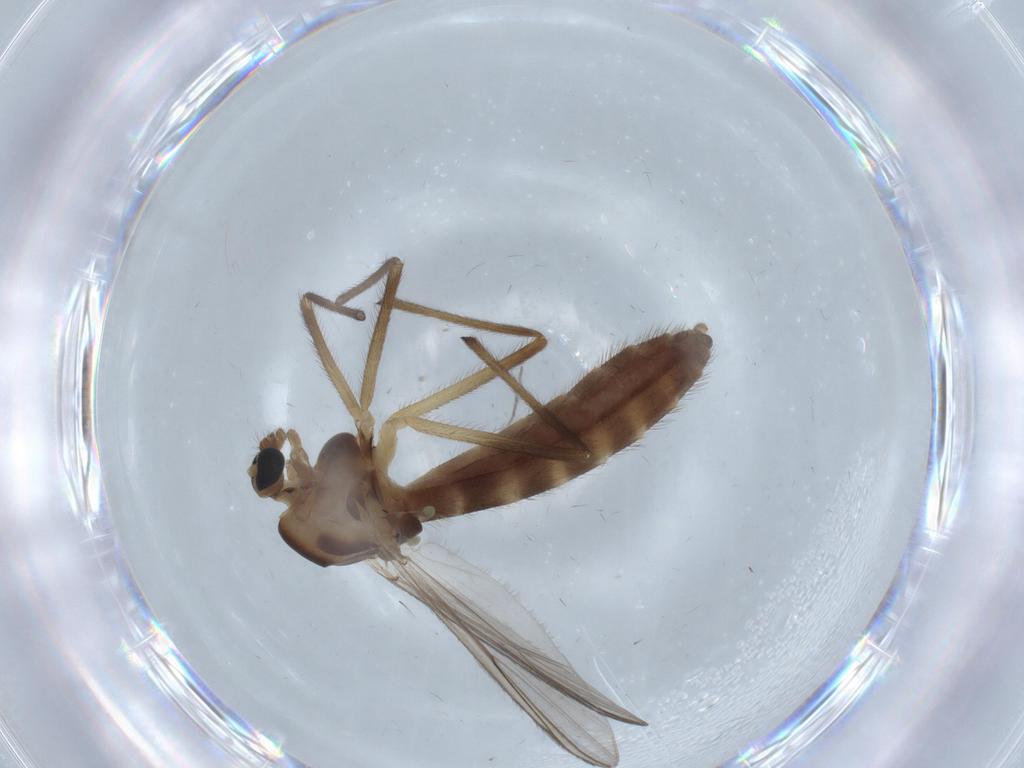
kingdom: Animalia
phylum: Arthropoda
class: Insecta
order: Diptera
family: Chironomidae
